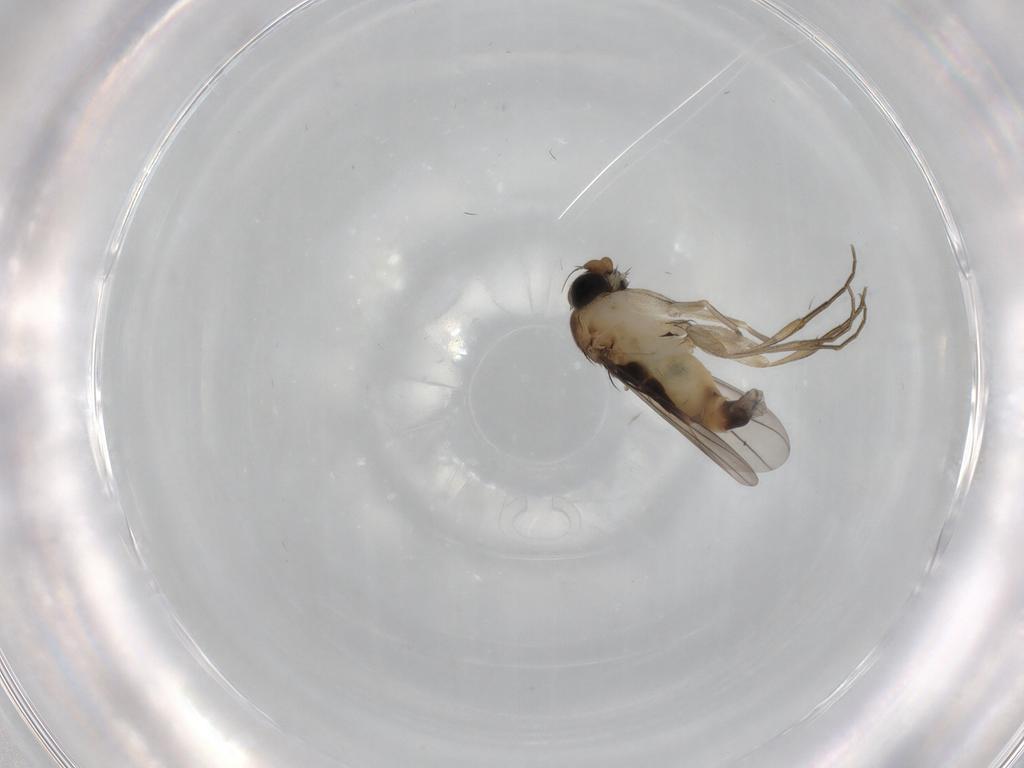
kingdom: Animalia
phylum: Arthropoda
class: Insecta
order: Diptera
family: Phoridae
